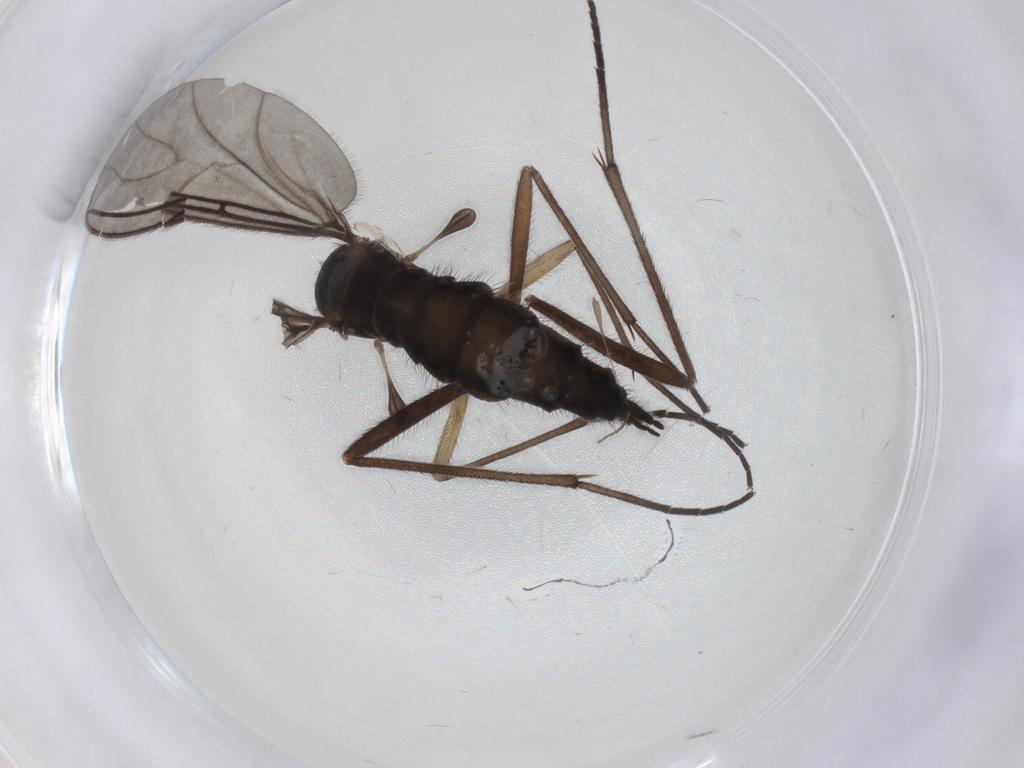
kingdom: Animalia
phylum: Arthropoda
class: Insecta
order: Diptera
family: Sciaridae
